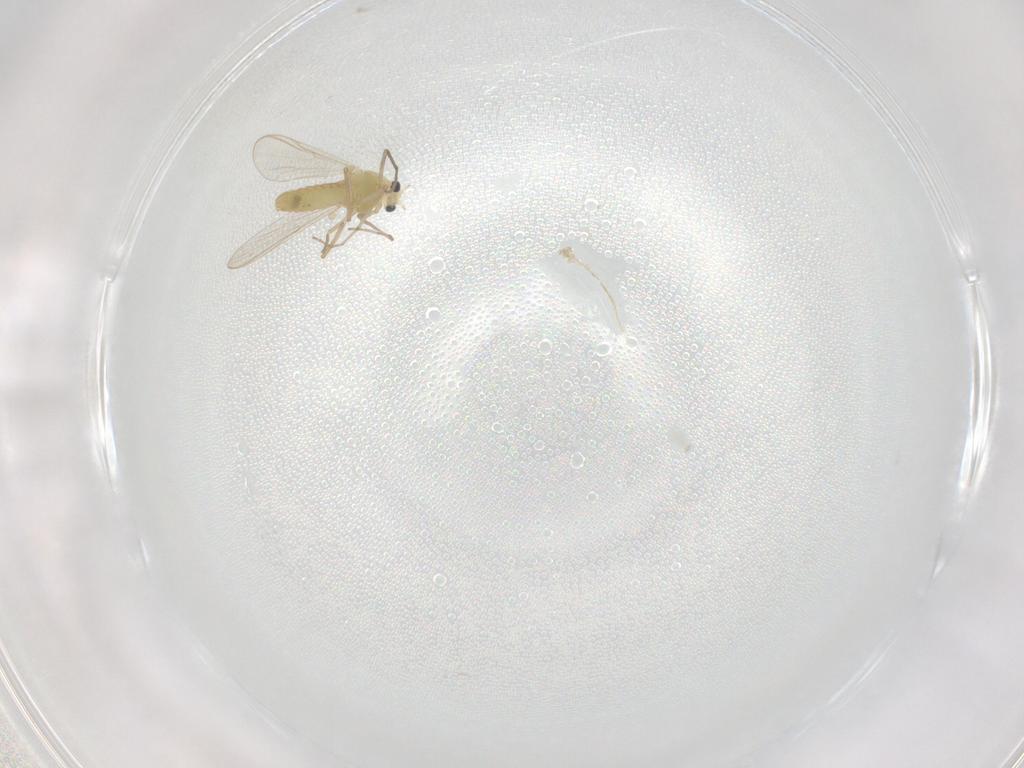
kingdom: Animalia
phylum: Arthropoda
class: Insecta
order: Diptera
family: Chironomidae
